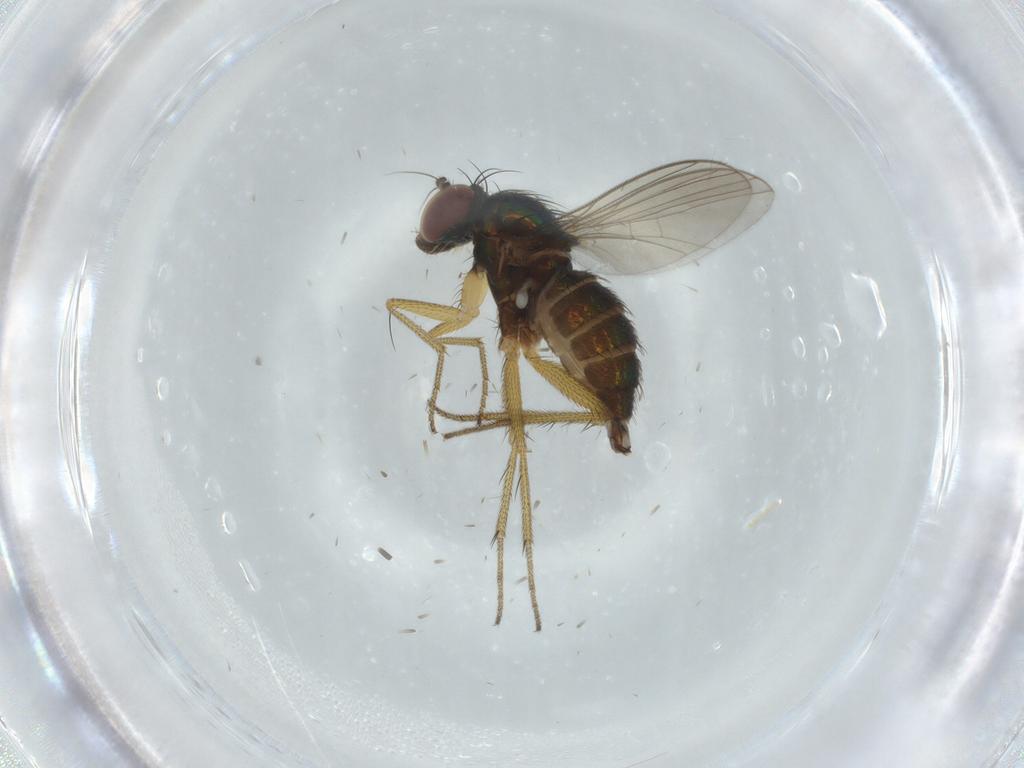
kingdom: Animalia
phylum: Arthropoda
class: Insecta
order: Diptera
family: Dolichopodidae
